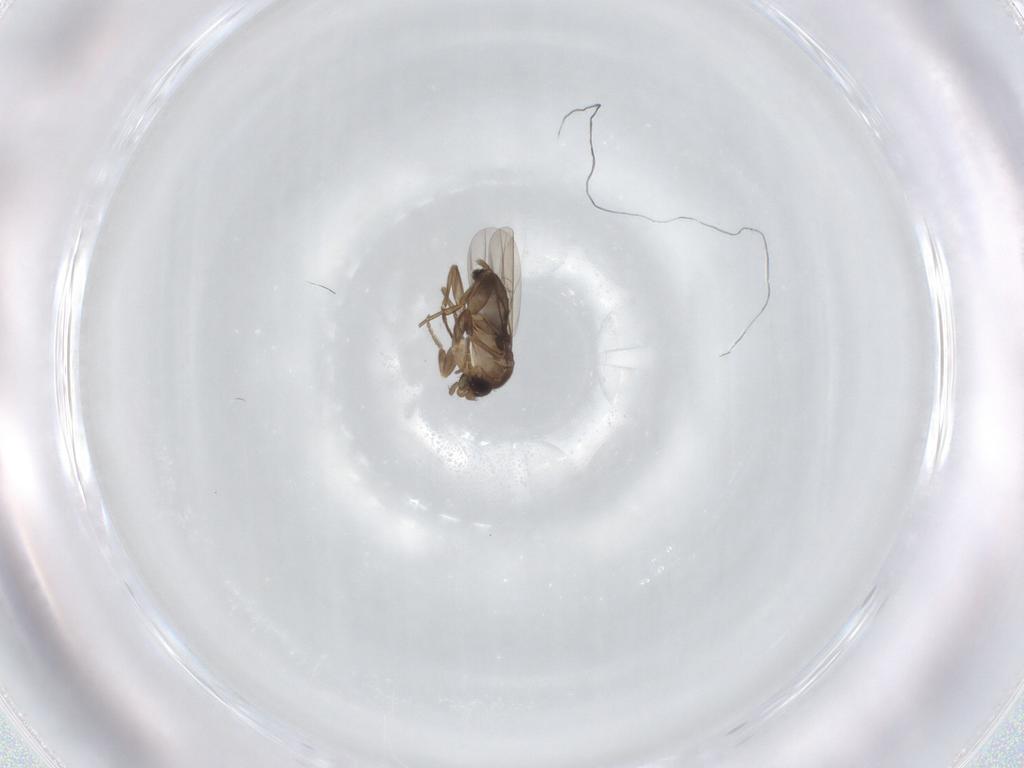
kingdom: Animalia
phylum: Arthropoda
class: Insecta
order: Diptera
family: Phoridae
